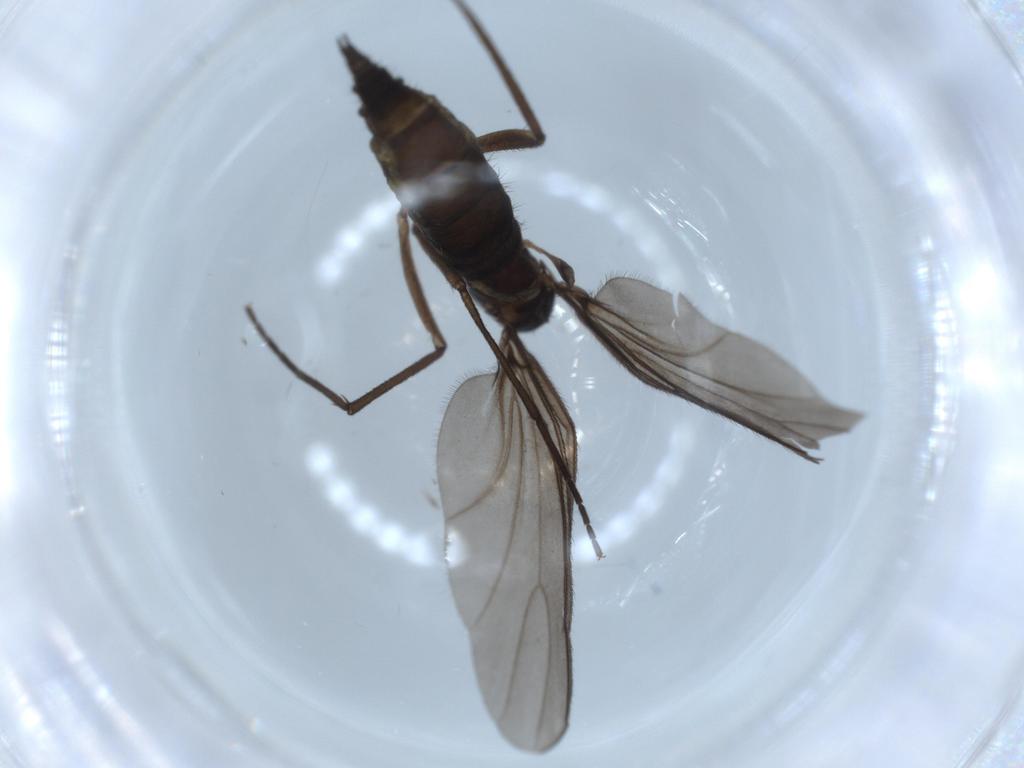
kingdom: Animalia
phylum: Arthropoda
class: Insecta
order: Diptera
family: Sciaridae
